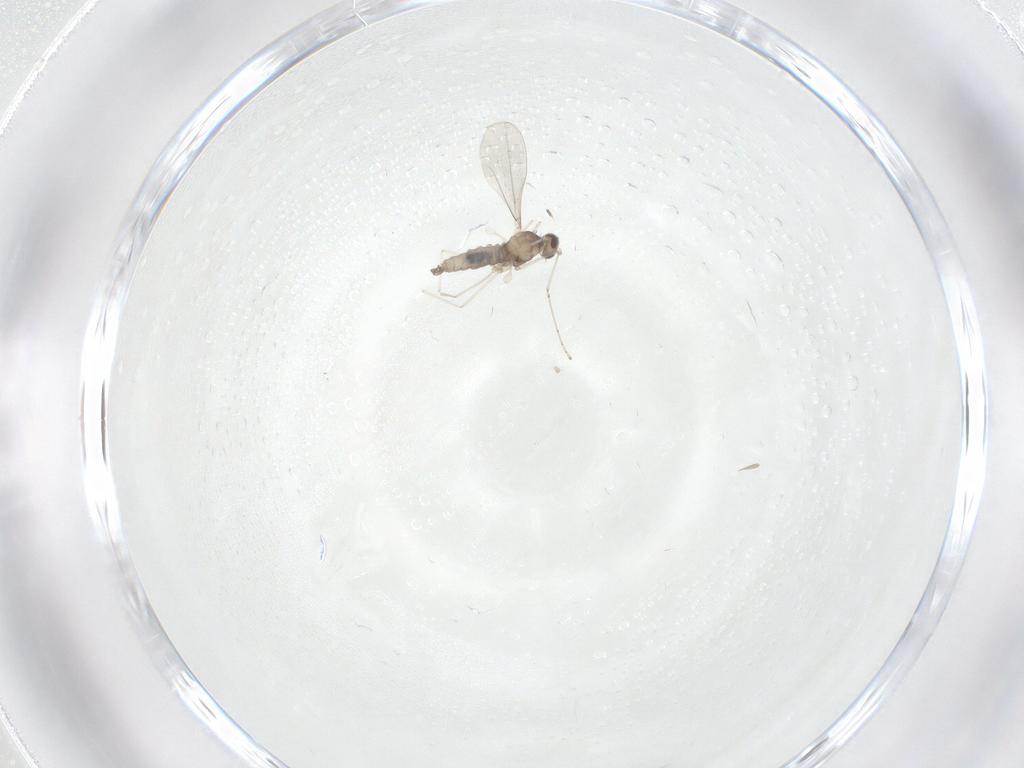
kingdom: Animalia
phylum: Arthropoda
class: Insecta
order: Diptera
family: Cecidomyiidae
